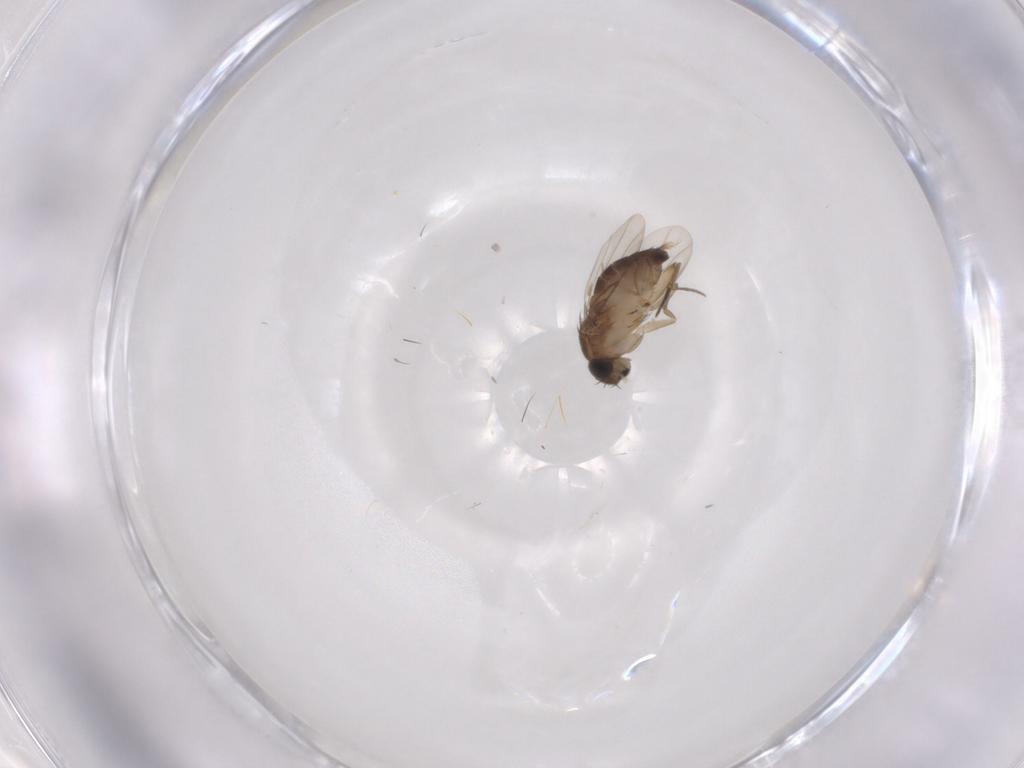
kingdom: Animalia
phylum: Arthropoda
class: Insecta
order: Diptera
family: Phoridae
